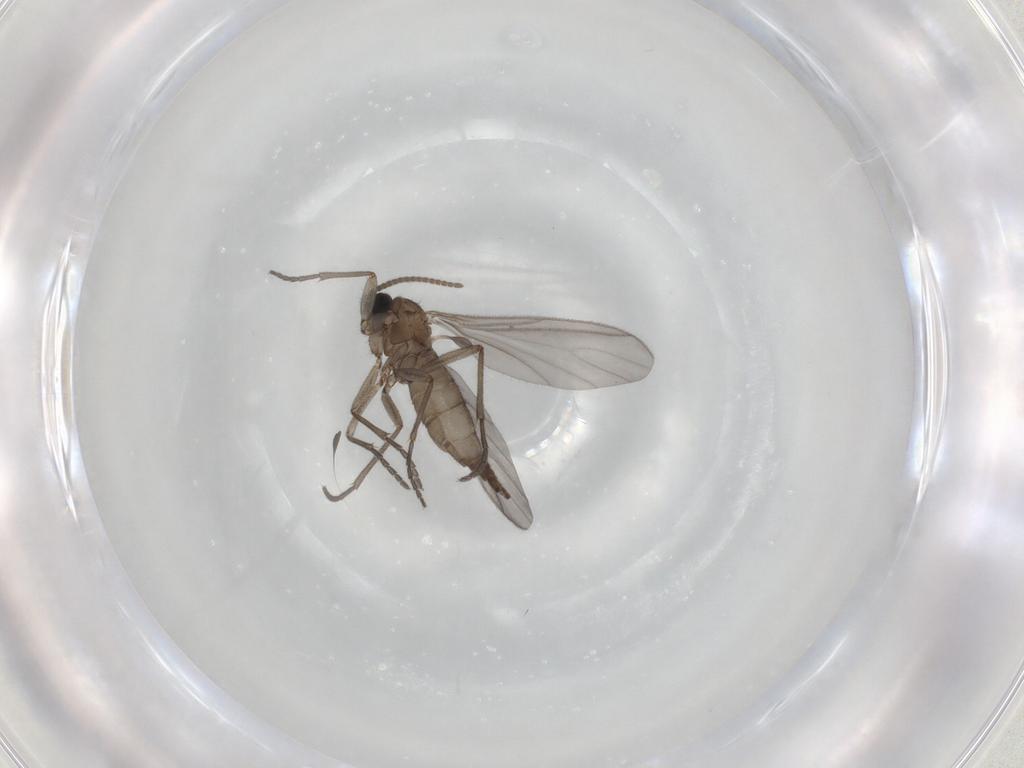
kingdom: Animalia
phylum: Arthropoda
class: Insecta
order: Diptera
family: Sciaridae
